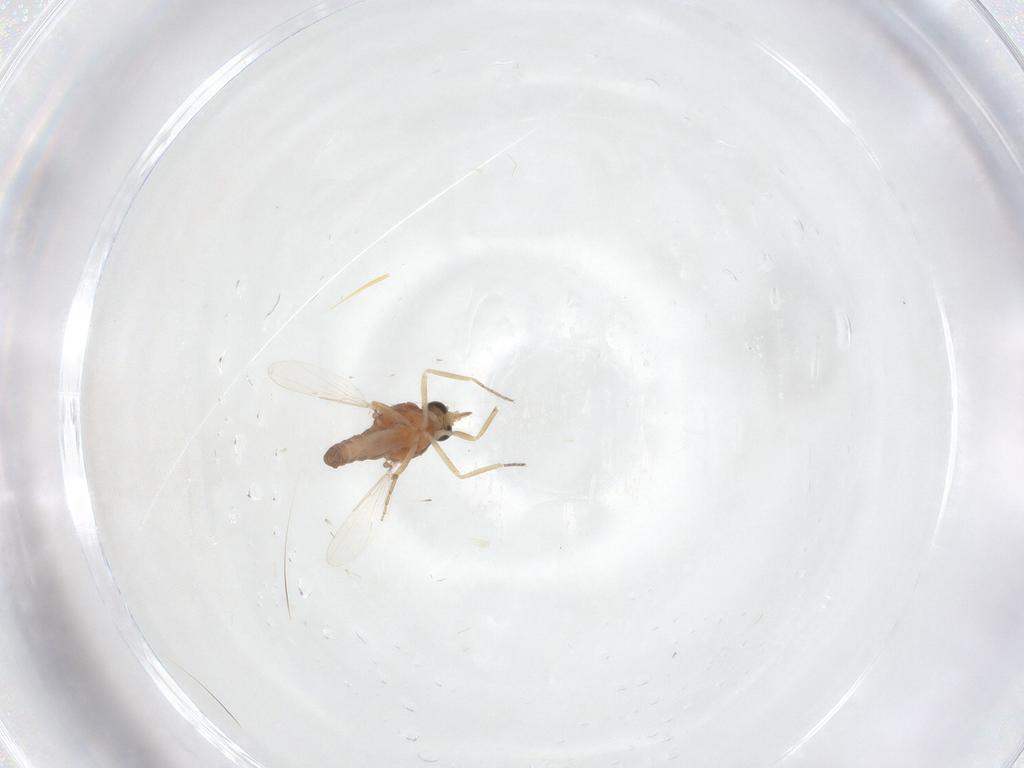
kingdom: Animalia
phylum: Arthropoda
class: Insecta
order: Diptera
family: Ceratopogonidae
